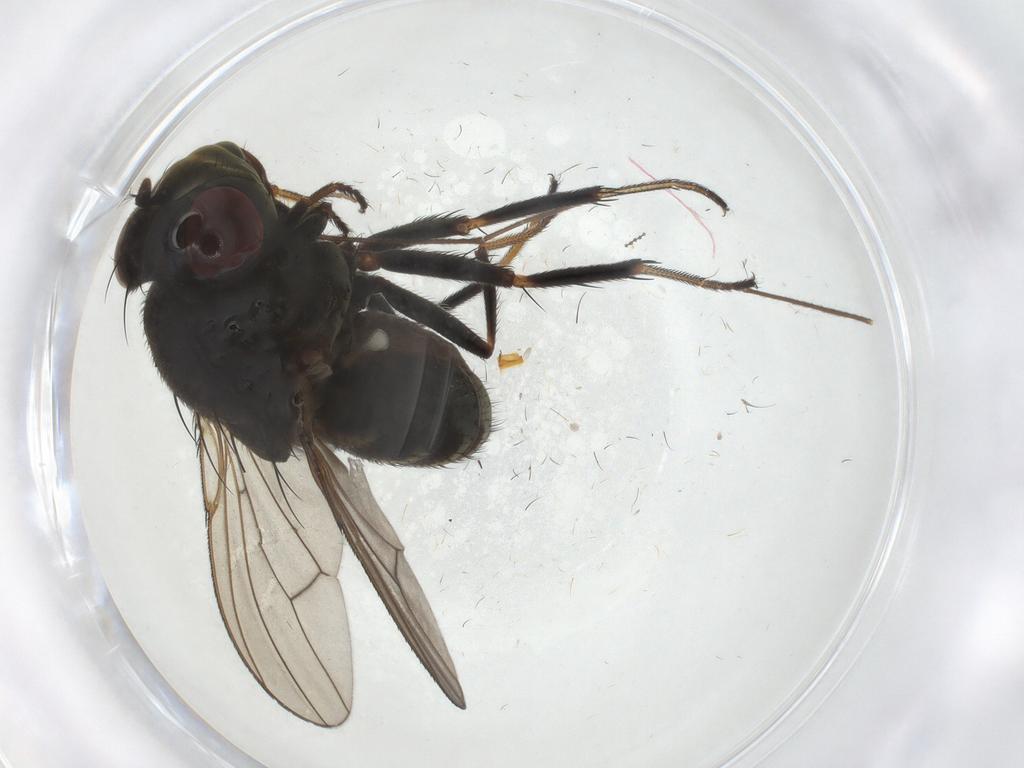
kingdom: Animalia
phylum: Arthropoda
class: Insecta
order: Diptera
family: Ephydridae
